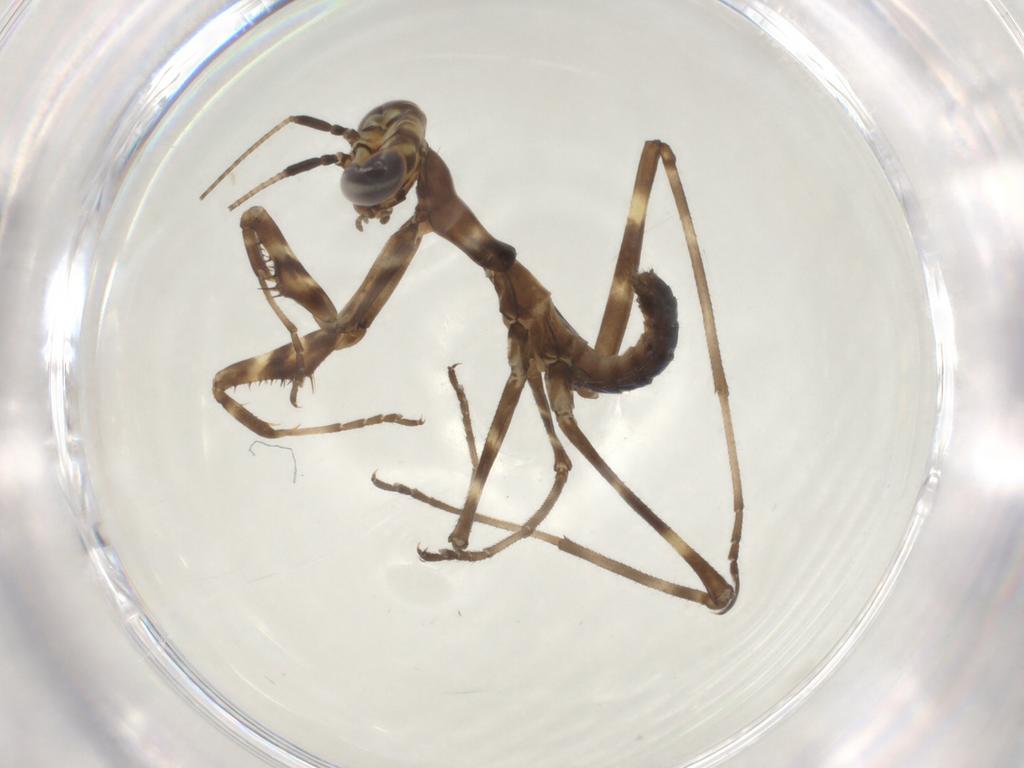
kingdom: Animalia
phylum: Arthropoda
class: Insecta
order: Mantodea
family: Miomantidae
